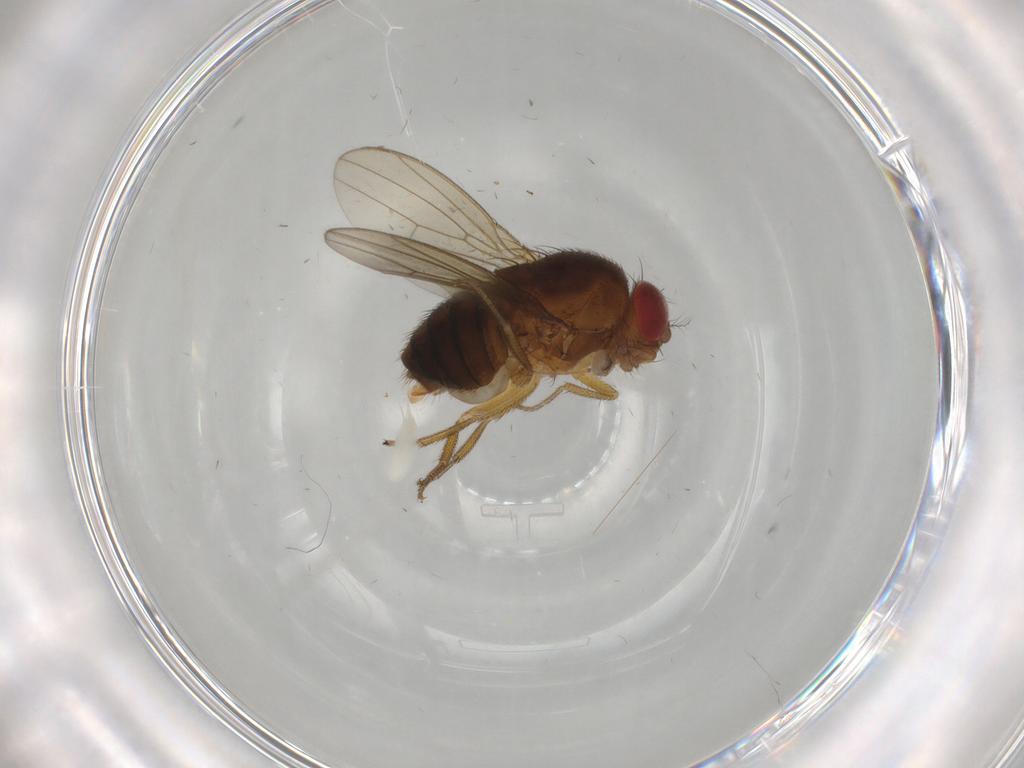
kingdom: Animalia
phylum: Arthropoda
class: Insecta
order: Diptera
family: Drosophilidae
